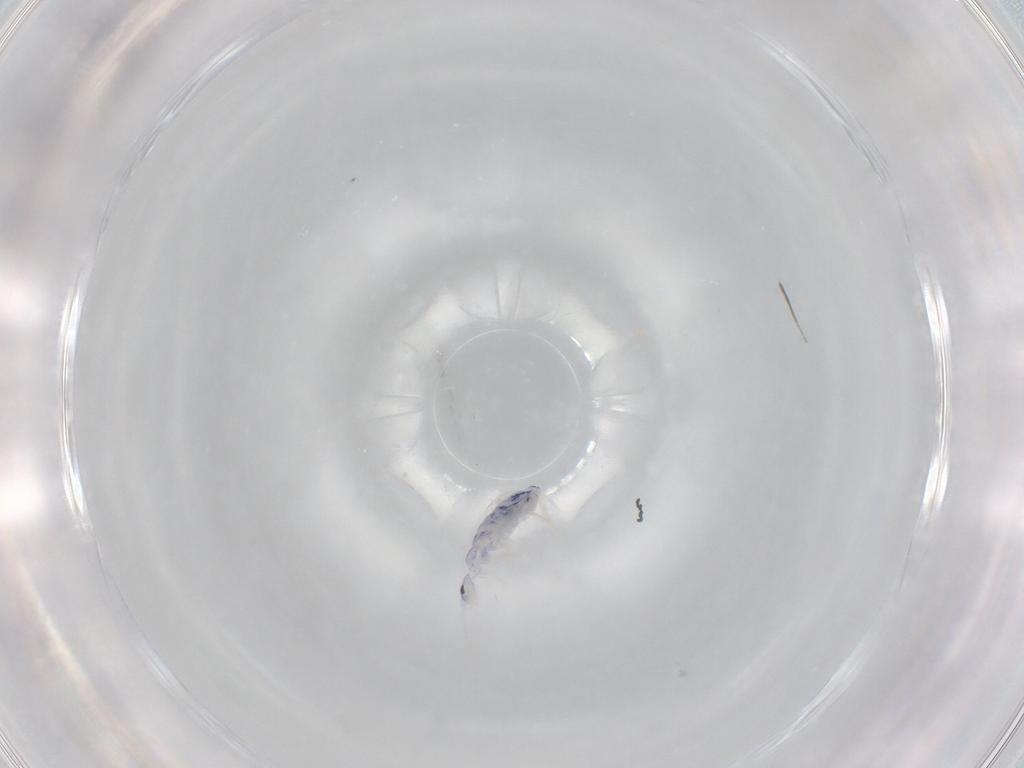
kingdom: Animalia
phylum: Arthropoda
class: Collembola
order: Entomobryomorpha
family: Entomobryidae
